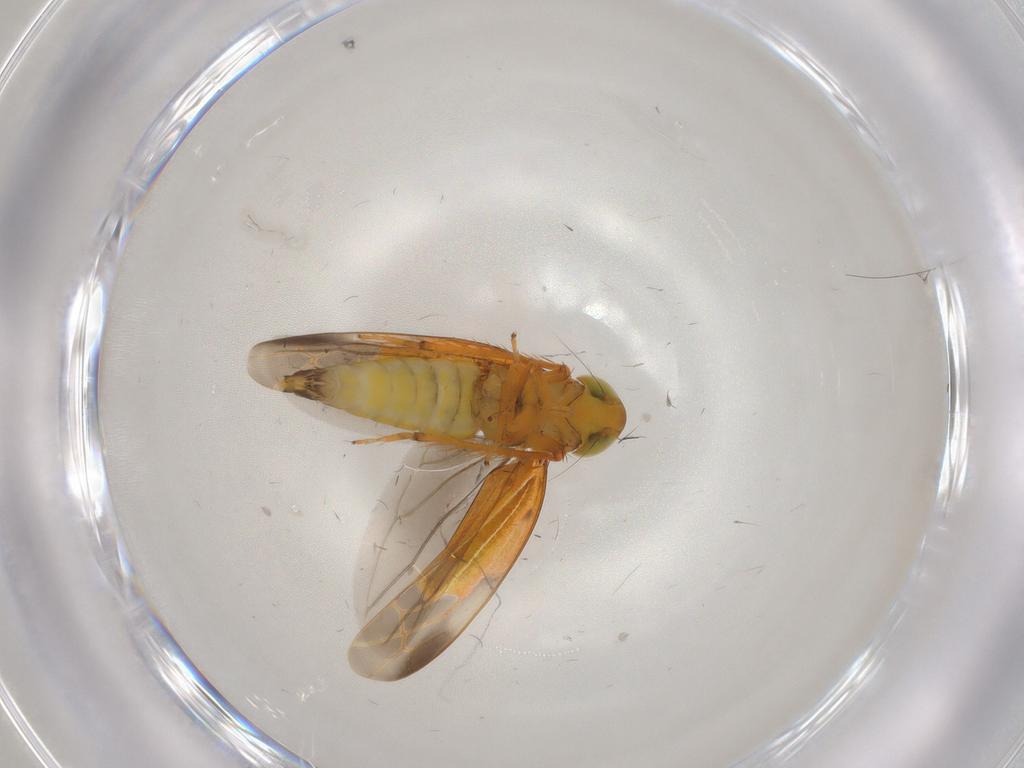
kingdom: Animalia
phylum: Arthropoda
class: Insecta
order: Hemiptera
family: Cicadellidae
